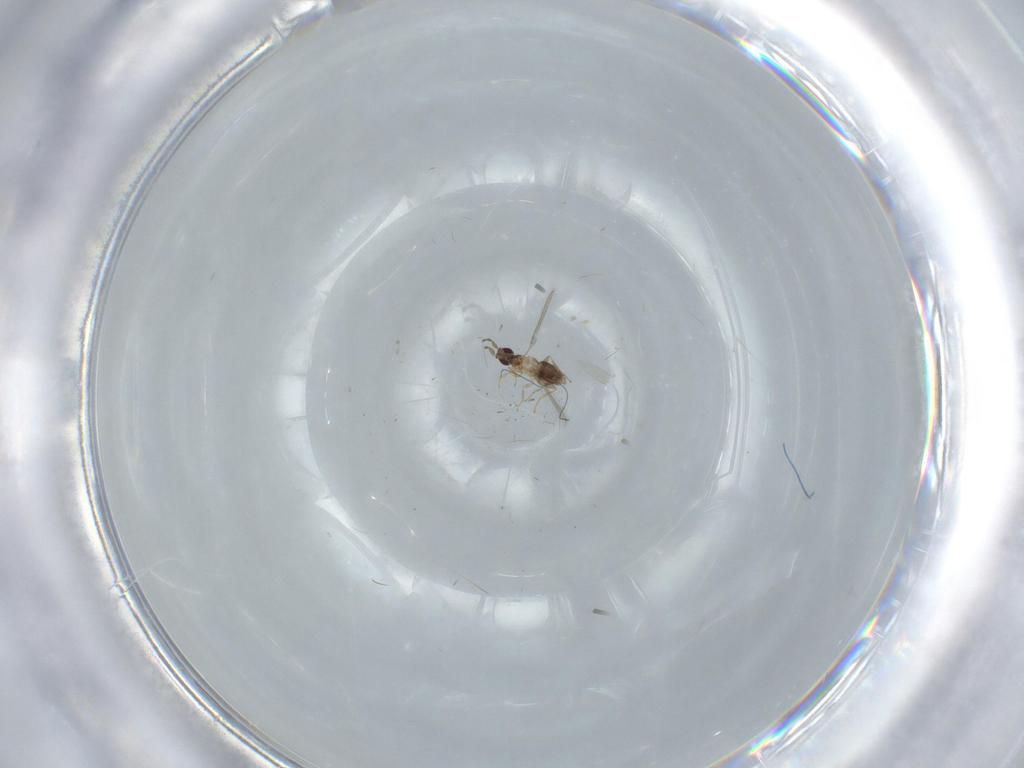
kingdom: Animalia
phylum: Arthropoda
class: Insecta
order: Hymenoptera
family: Mymaridae
